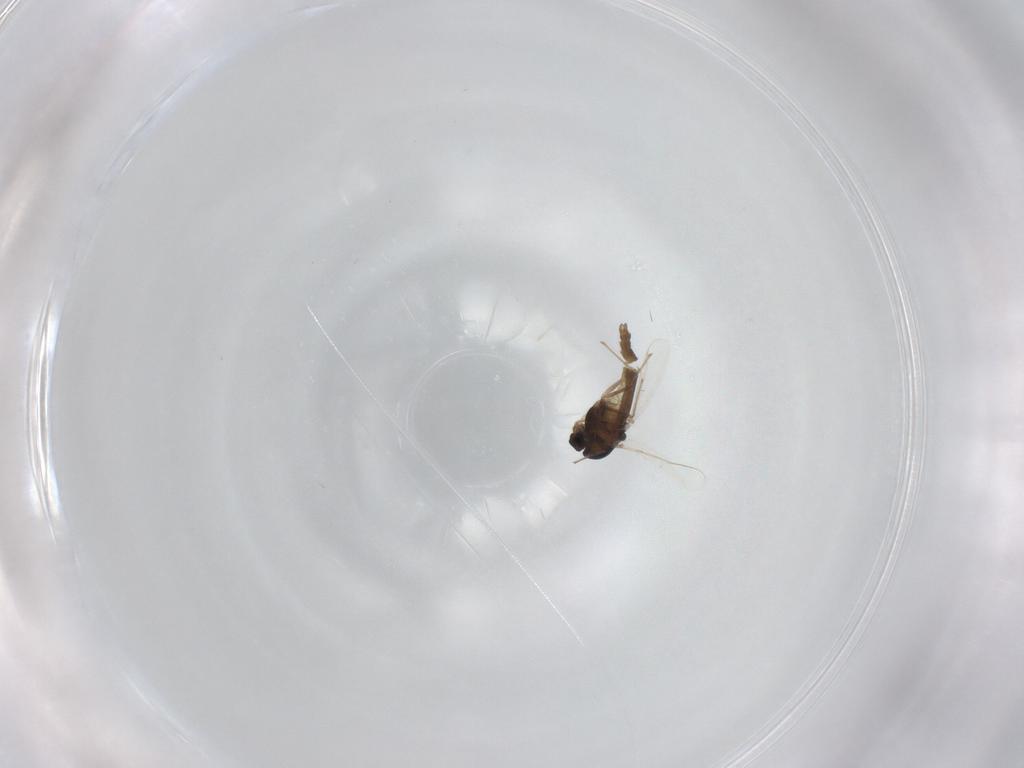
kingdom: Animalia
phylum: Arthropoda
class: Insecta
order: Diptera
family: Chironomidae
